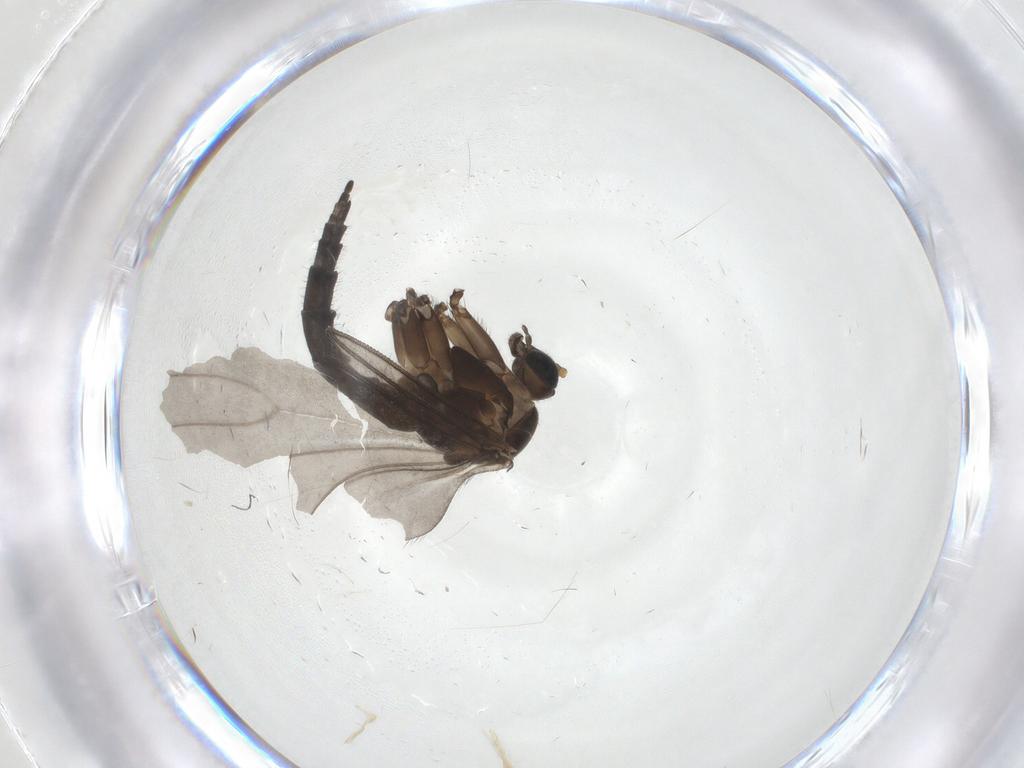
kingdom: Animalia
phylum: Arthropoda
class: Insecta
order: Diptera
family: Sciaridae
